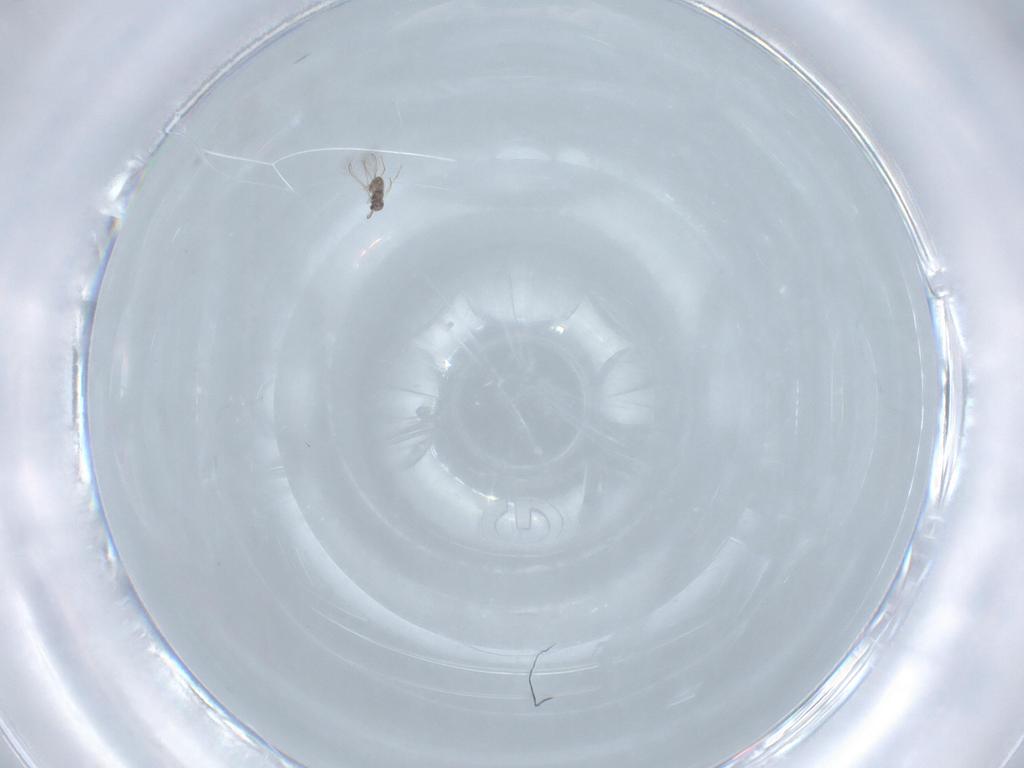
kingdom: Animalia
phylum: Arthropoda
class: Insecta
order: Hymenoptera
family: Mymaridae
